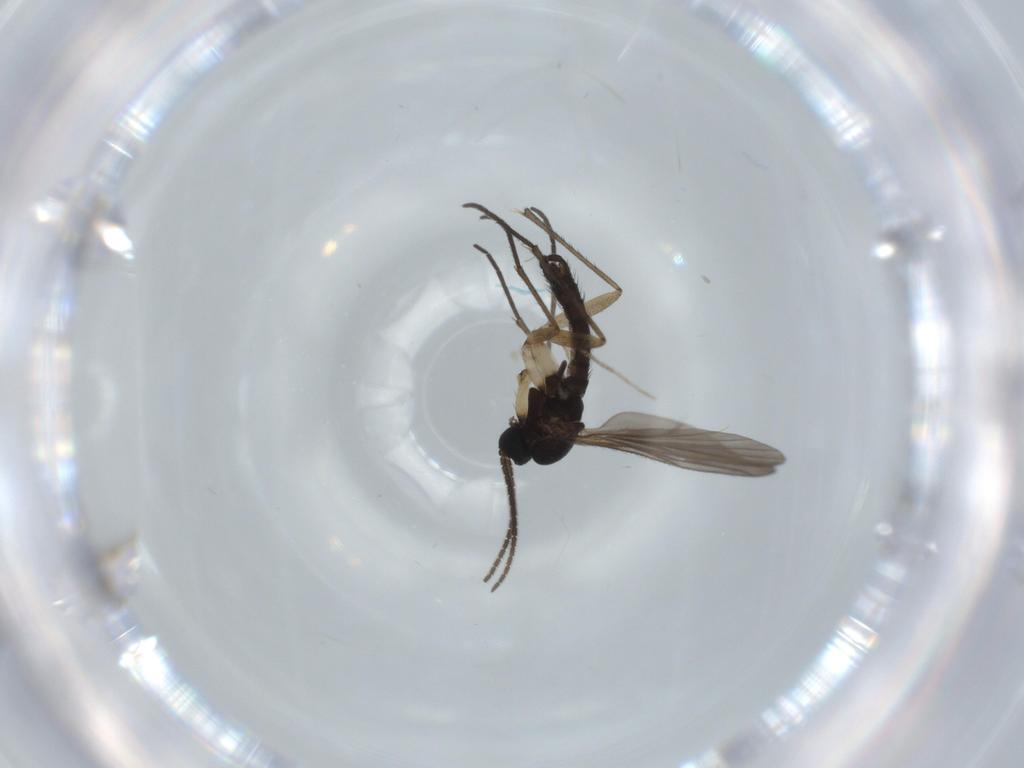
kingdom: Animalia
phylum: Arthropoda
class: Insecta
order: Diptera
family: Sciaridae
